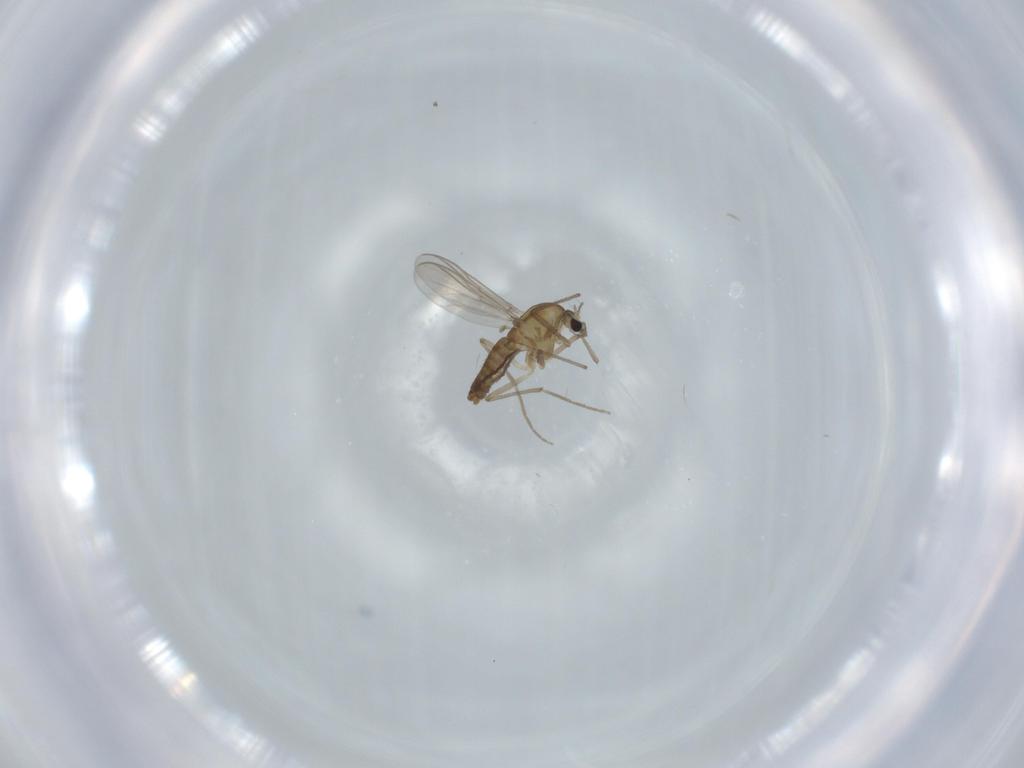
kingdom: Animalia
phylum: Arthropoda
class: Insecta
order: Diptera
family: Chironomidae
